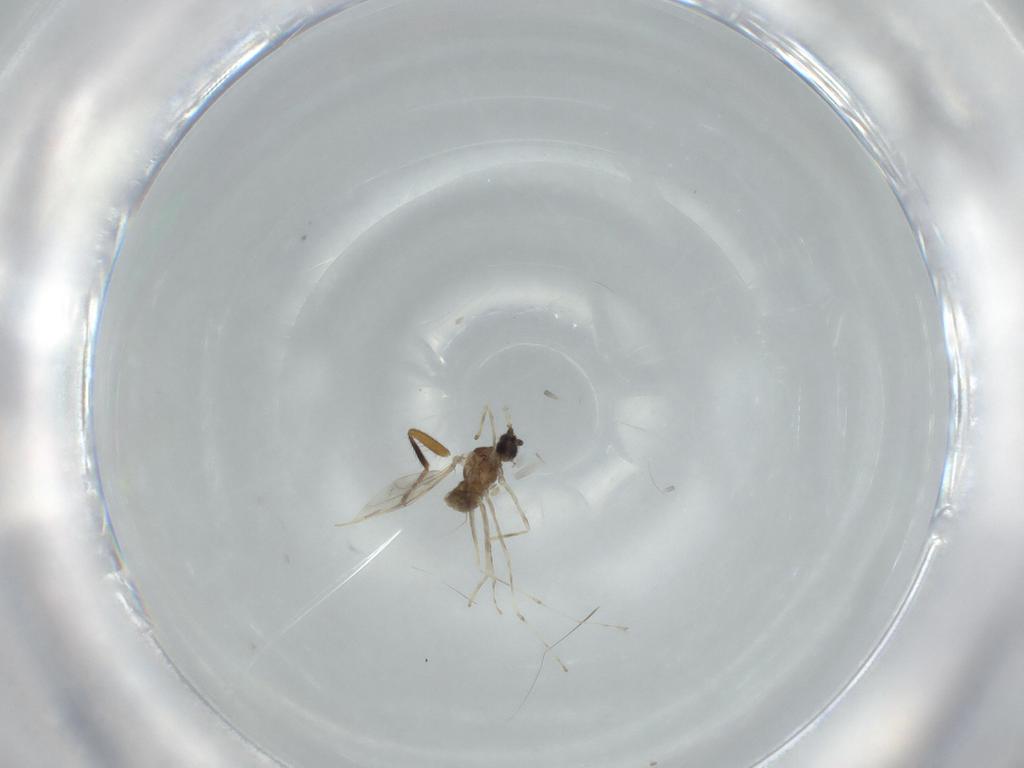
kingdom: Animalia
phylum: Arthropoda
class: Insecta
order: Diptera
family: Cecidomyiidae
